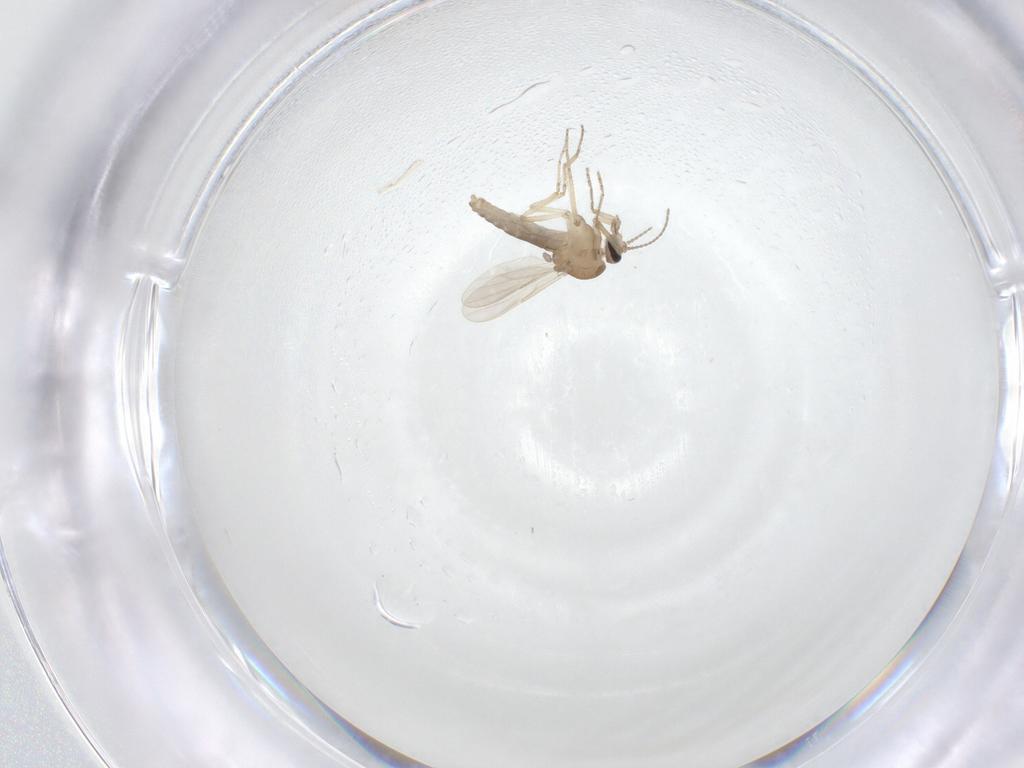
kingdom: Animalia
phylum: Arthropoda
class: Insecta
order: Diptera
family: Ceratopogonidae
